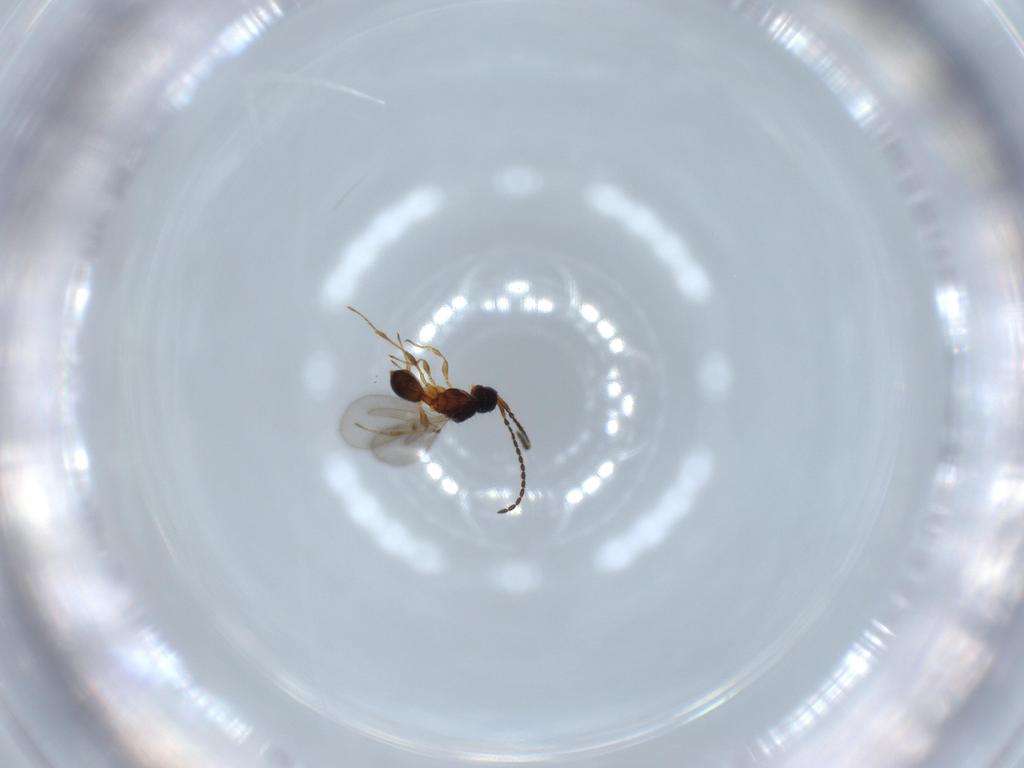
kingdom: Animalia
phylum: Arthropoda
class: Insecta
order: Hymenoptera
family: Diapriidae
